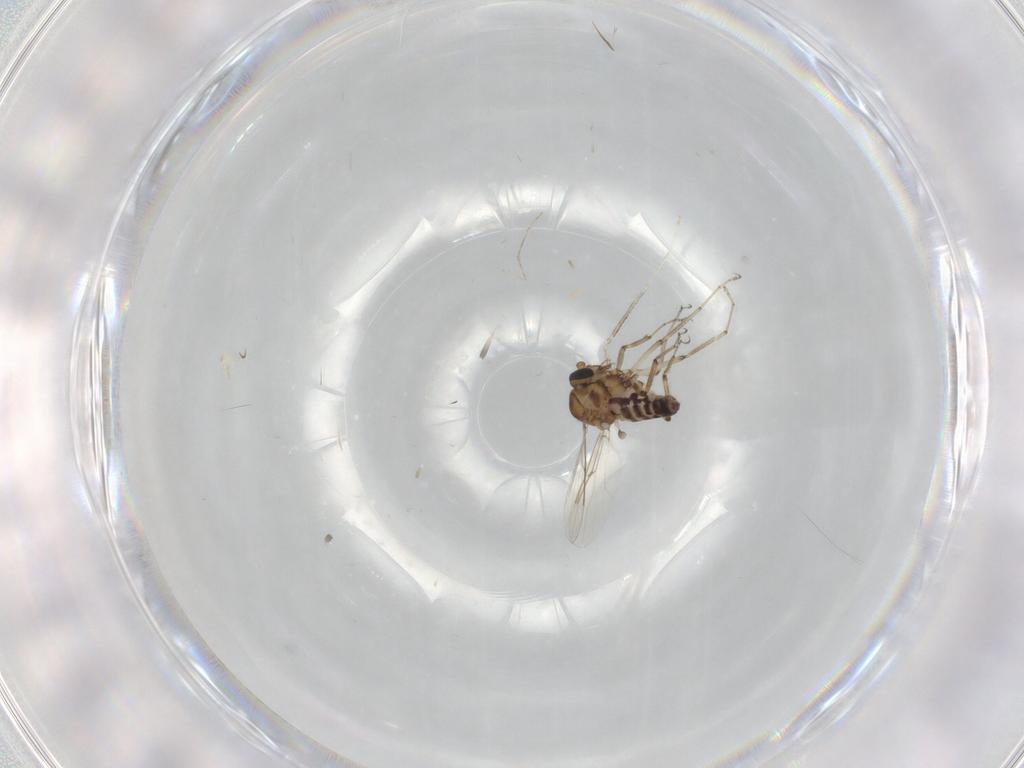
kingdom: Animalia
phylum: Arthropoda
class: Insecta
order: Diptera
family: Ceratopogonidae
